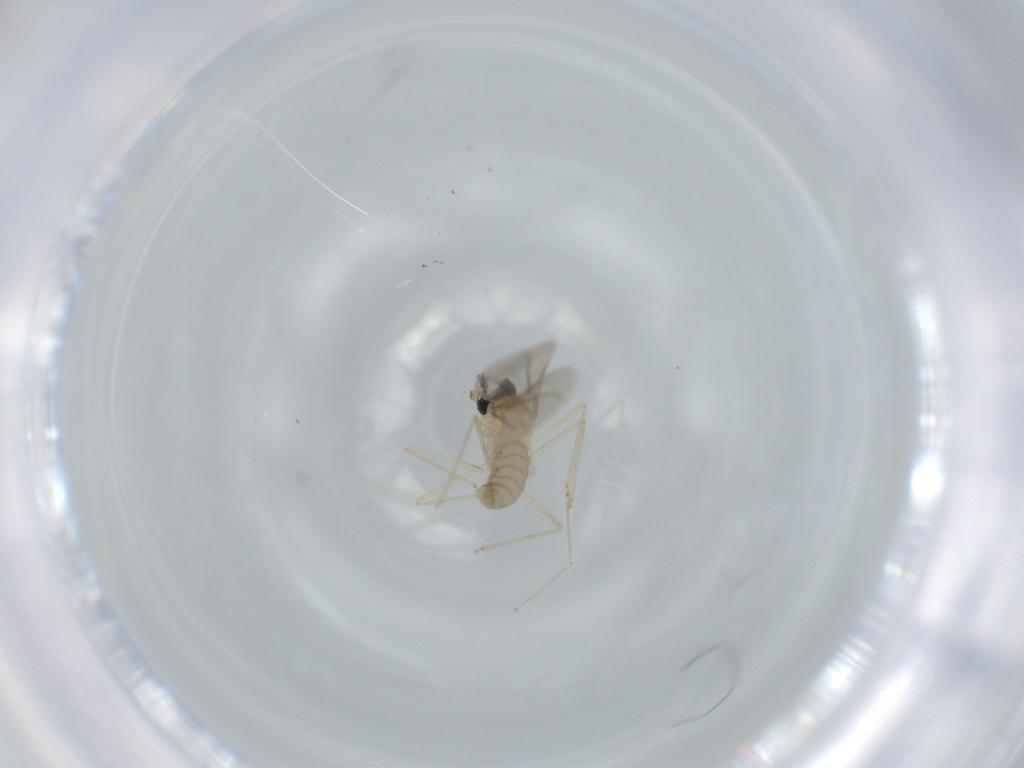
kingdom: Animalia
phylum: Arthropoda
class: Insecta
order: Diptera
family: Cecidomyiidae
